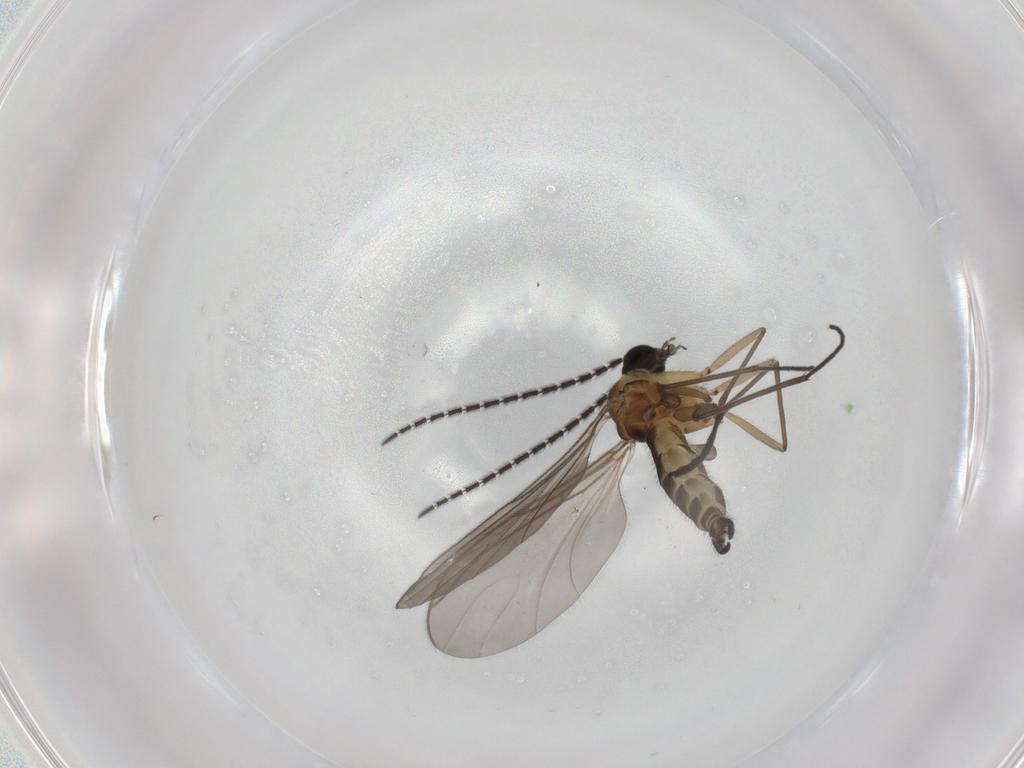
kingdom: Animalia
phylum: Arthropoda
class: Insecta
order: Diptera
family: Sciaridae
